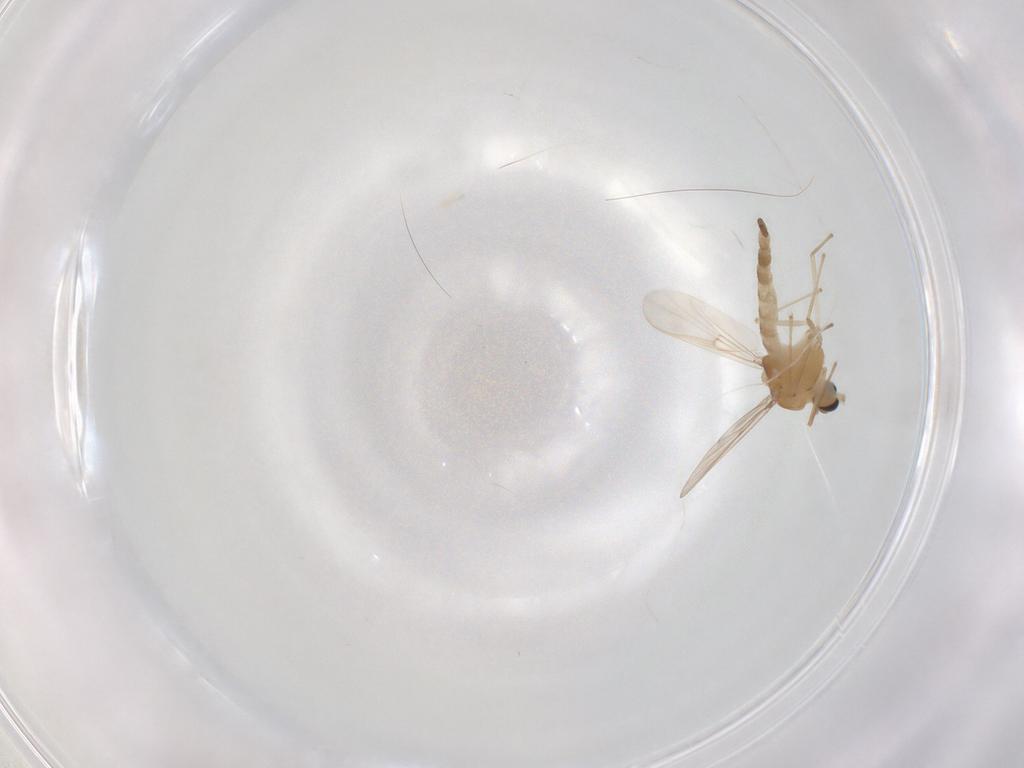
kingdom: Animalia
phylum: Arthropoda
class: Insecta
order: Diptera
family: Chironomidae
